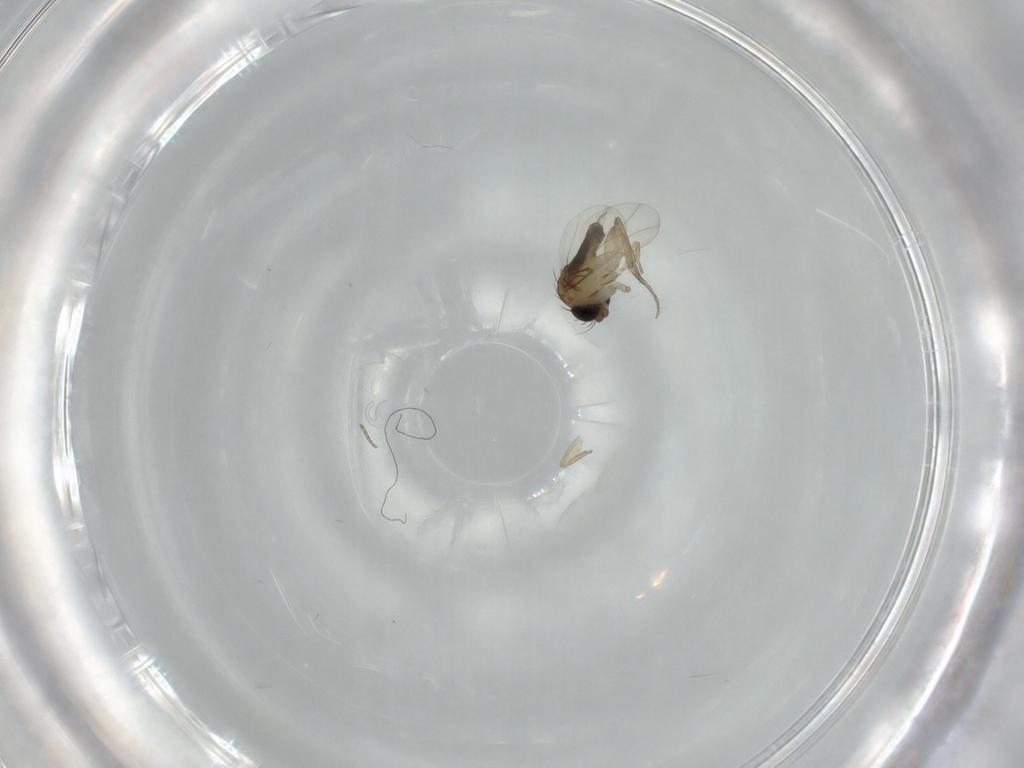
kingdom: Animalia
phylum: Arthropoda
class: Insecta
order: Diptera
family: Phoridae
